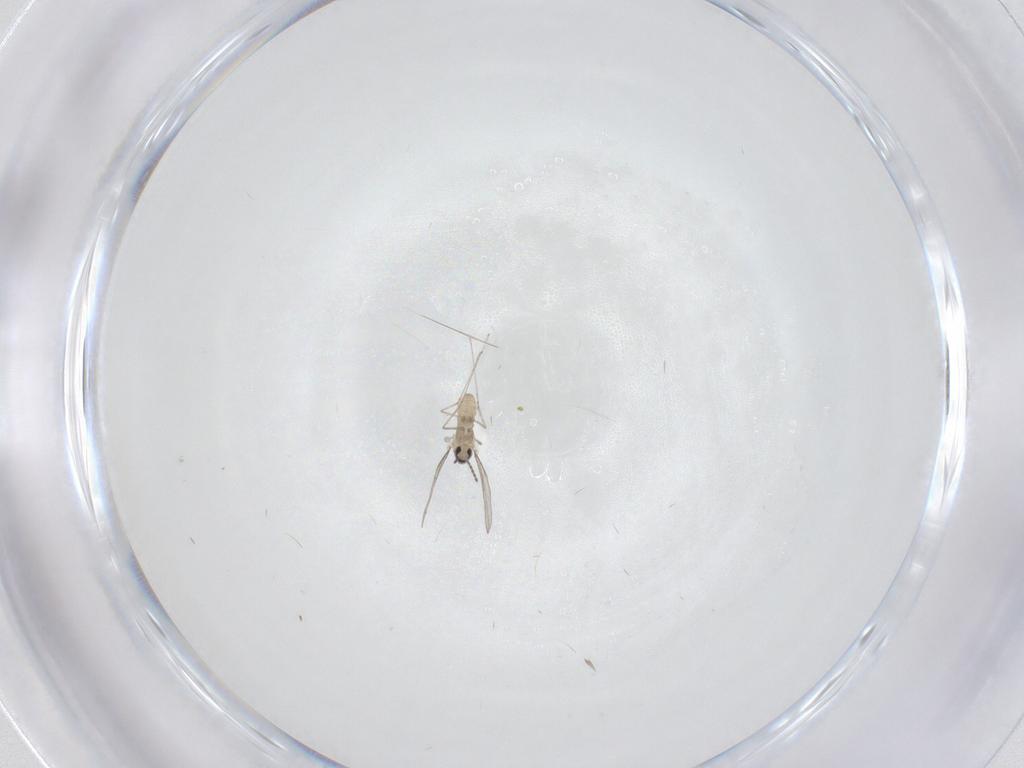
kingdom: Animalia
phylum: Arthropoda
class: Insecta
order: Diptera
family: Cecidomyiidae
